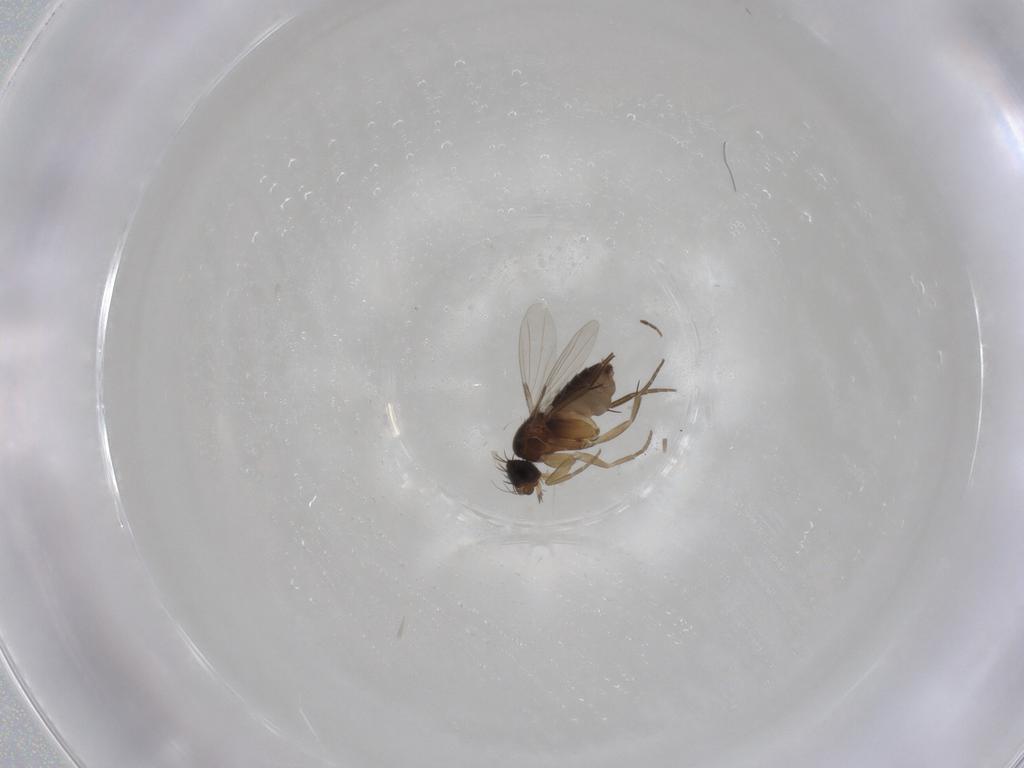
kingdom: Animalia
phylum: Arthropoda
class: Insecta
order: Diptera
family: Phoridae
